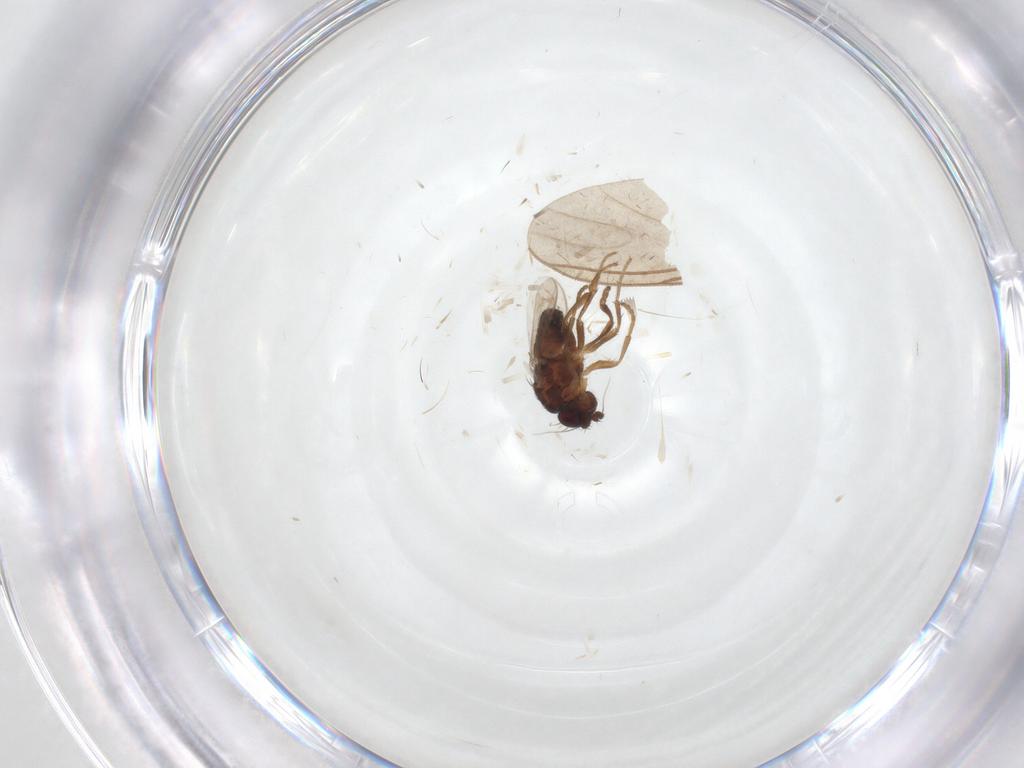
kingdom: Animalia
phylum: Arthropoda
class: Insecta
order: Diptera
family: Sphaeroceridae
